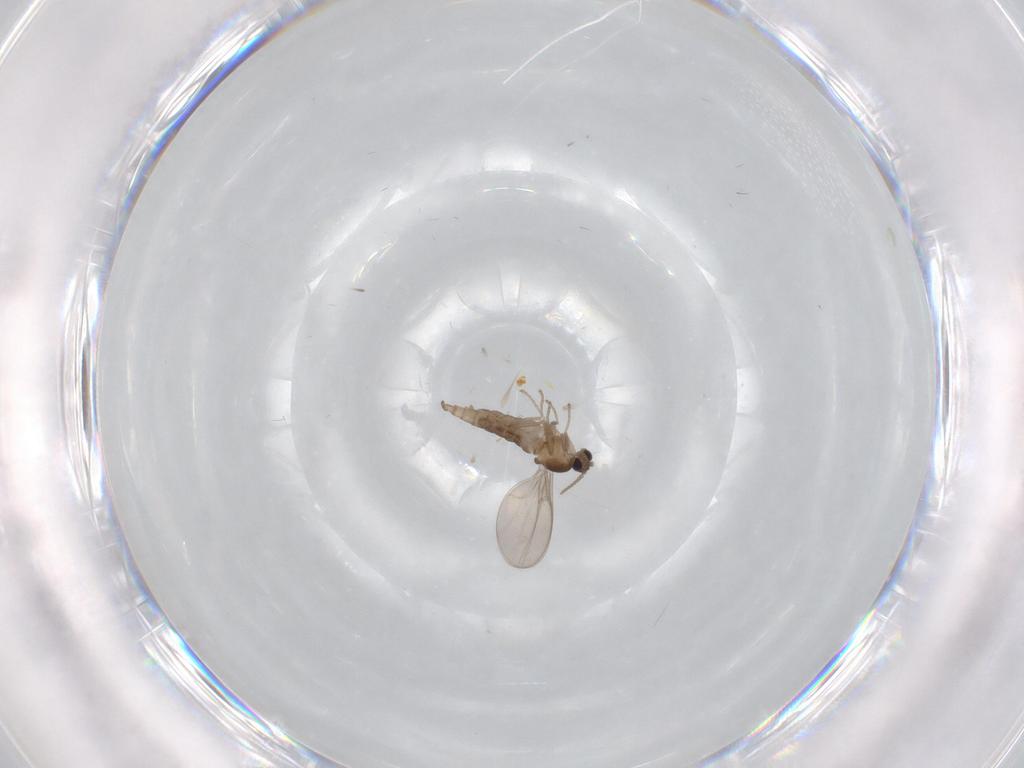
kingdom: Animalia
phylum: Arthropoda
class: Insecta
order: Diptera
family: Cecidomyiidae
